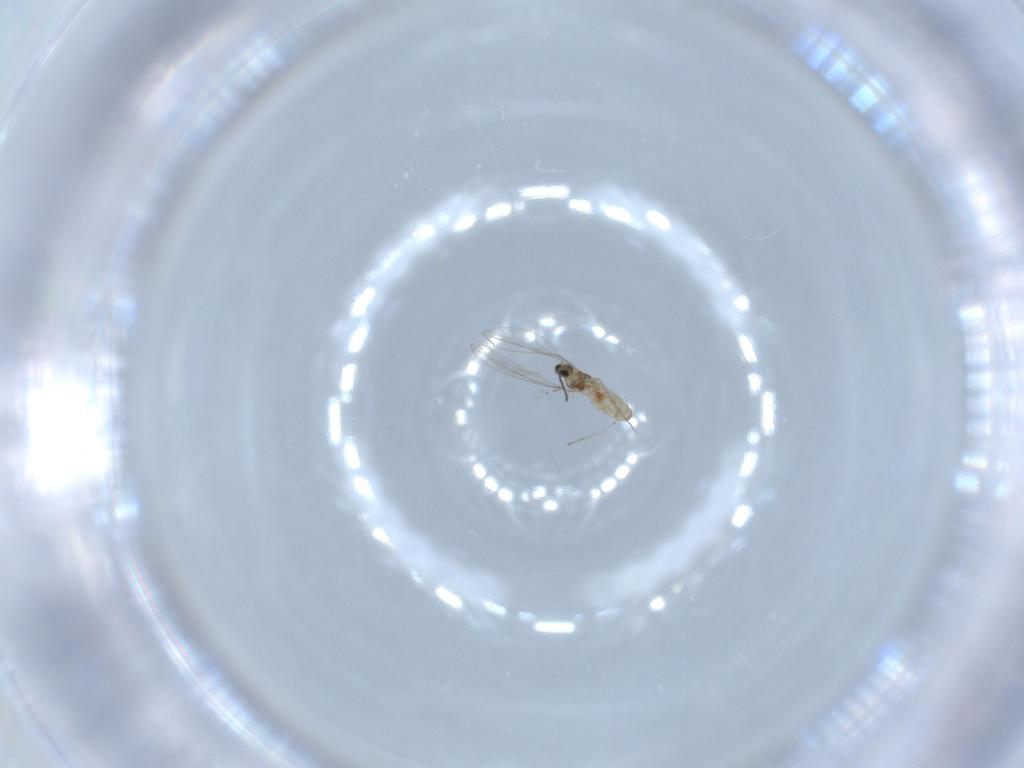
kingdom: Animalia
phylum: Arthropoda
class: Insecta
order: Diptera
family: Cecidomyiidae
